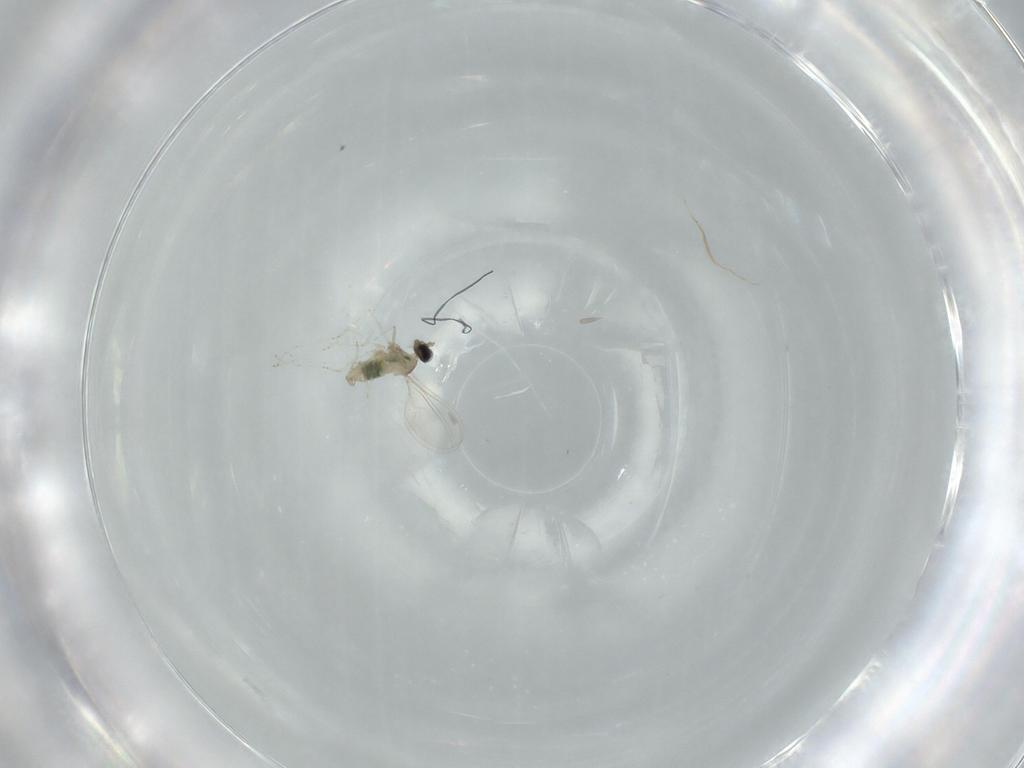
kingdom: Animalia
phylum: Arthropoda
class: Insecta
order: Diptera
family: Cecidomyiidae
